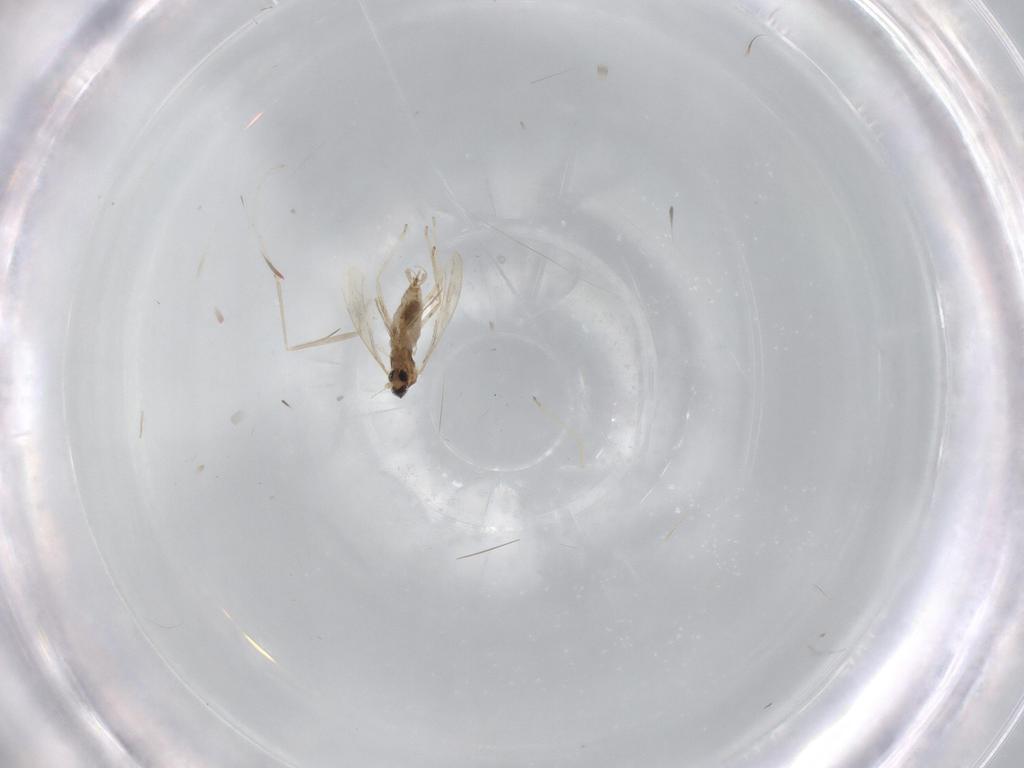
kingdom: Animalia
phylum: Arthropoda
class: Insecta
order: Diptera
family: Cecidomyiidae
